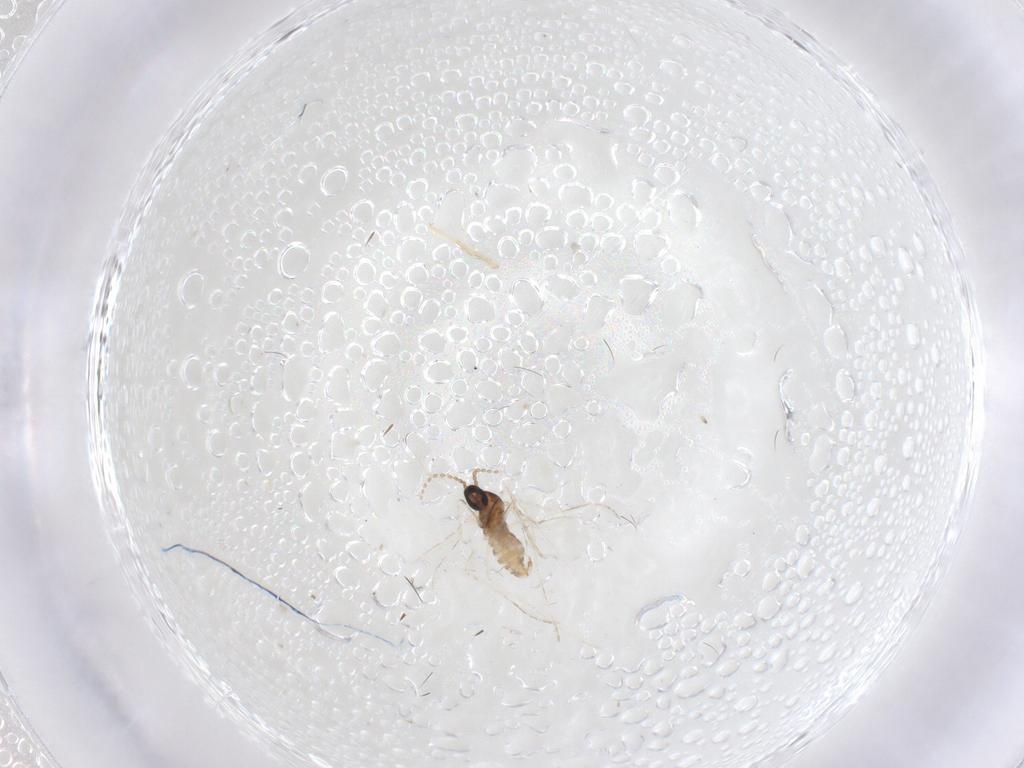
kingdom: Animalia
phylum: Arthropoda
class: Insecta
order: Diptera
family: Cecidomyiidae
